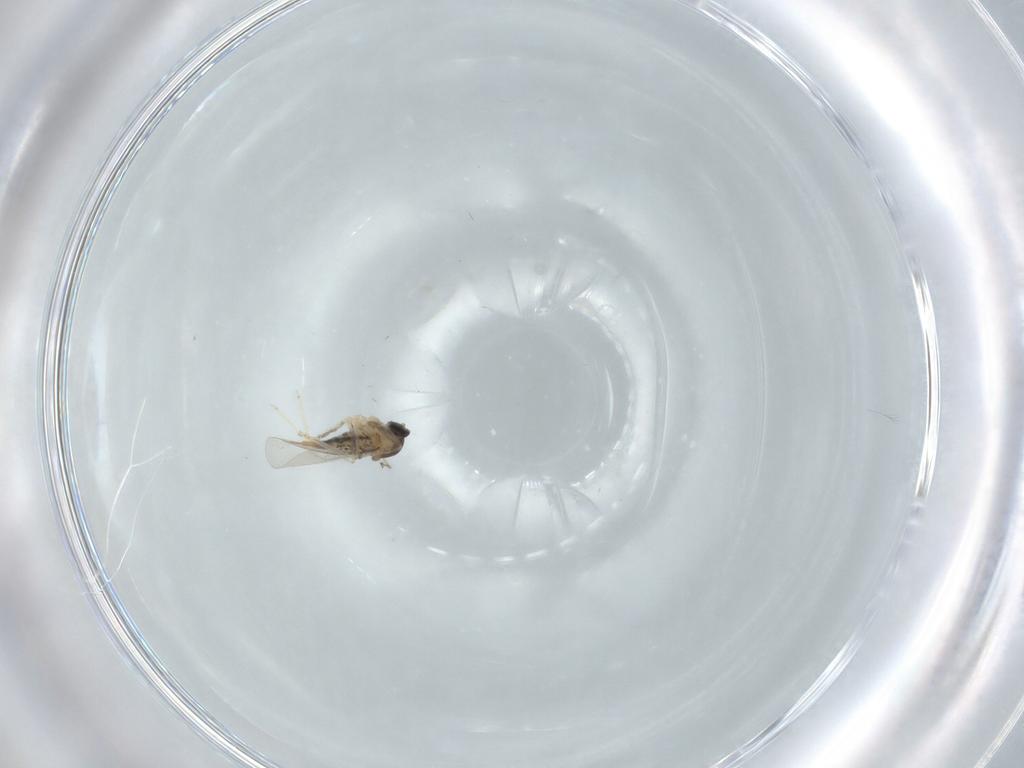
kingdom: Animalia
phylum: Arthropoda
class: Insecta
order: Diptera
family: Cecidomyiidae
